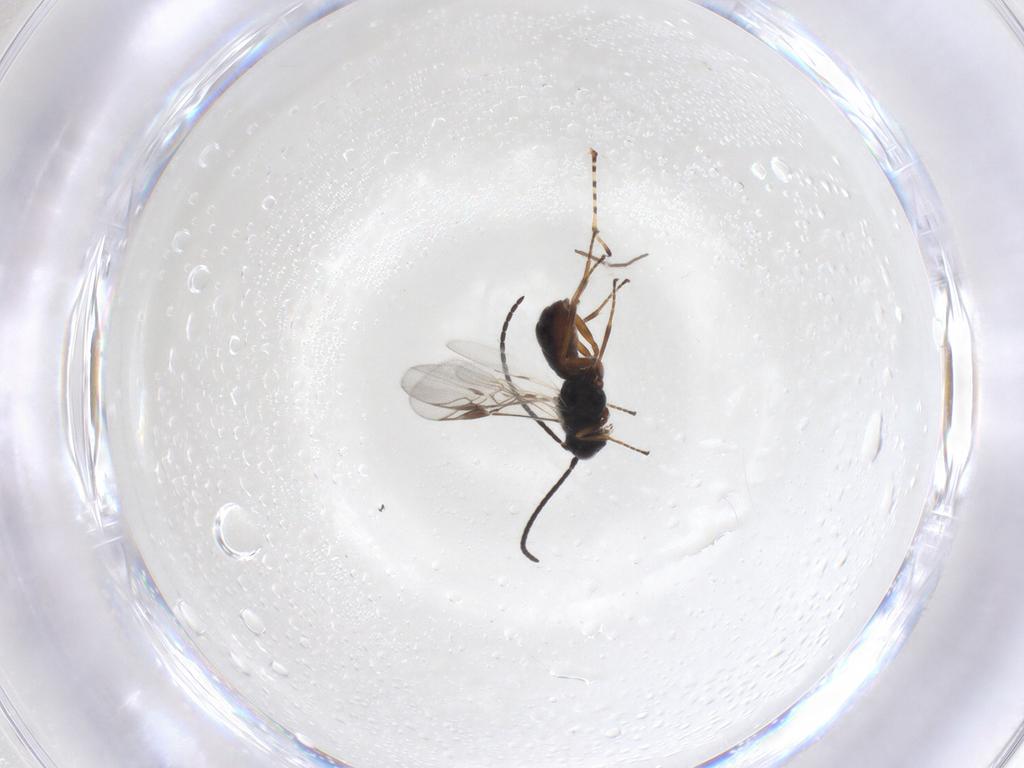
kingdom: Animalia
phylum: Arthropoda
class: Insecta
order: Hymenoptera
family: Braconidae
